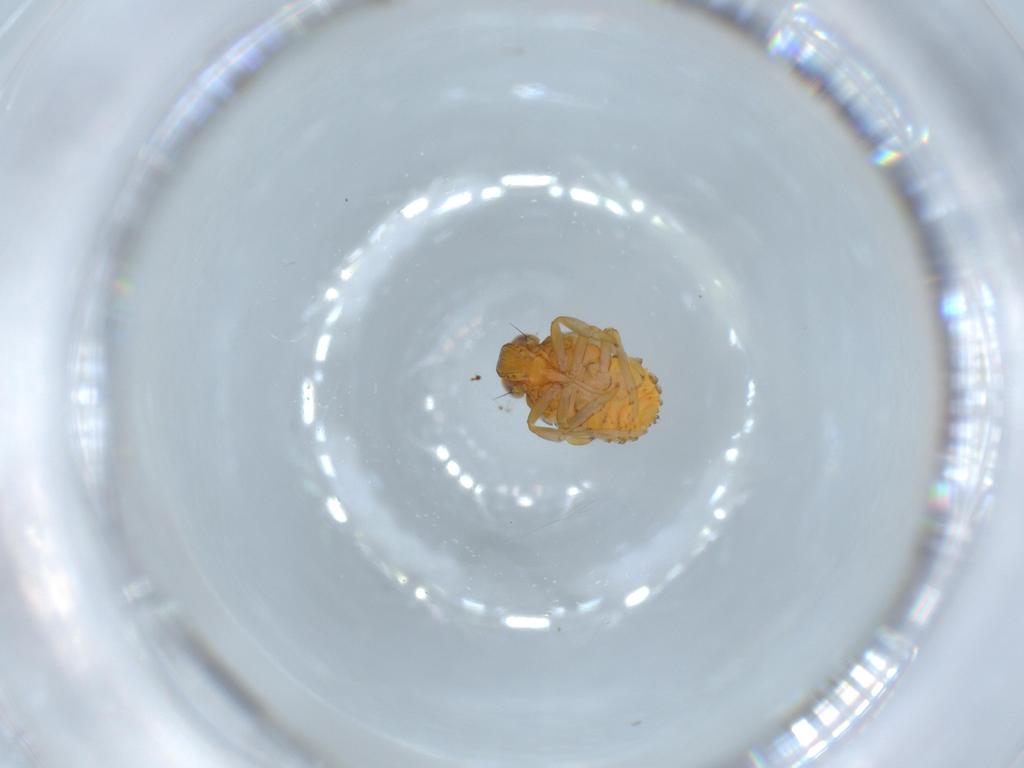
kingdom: Animalia
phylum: Arthropoda
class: Insecta
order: Hemiptera
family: Issidae
